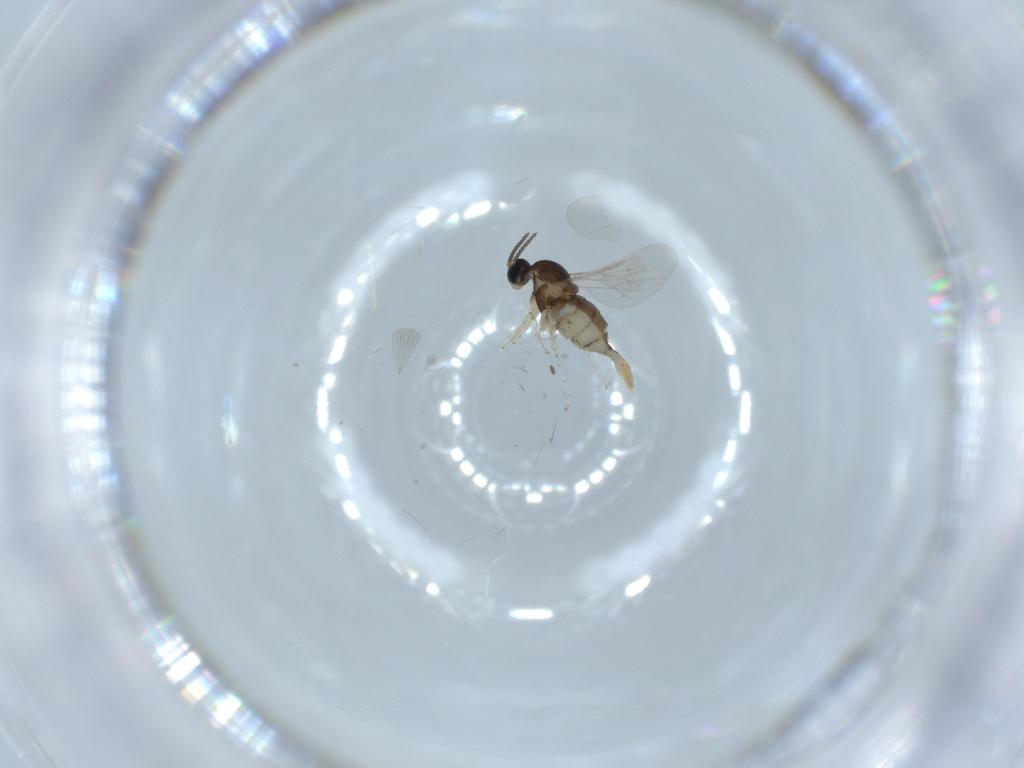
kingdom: Animalia
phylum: Arthropoda
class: Insecta
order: Diptera
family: Cecidomyiidae
